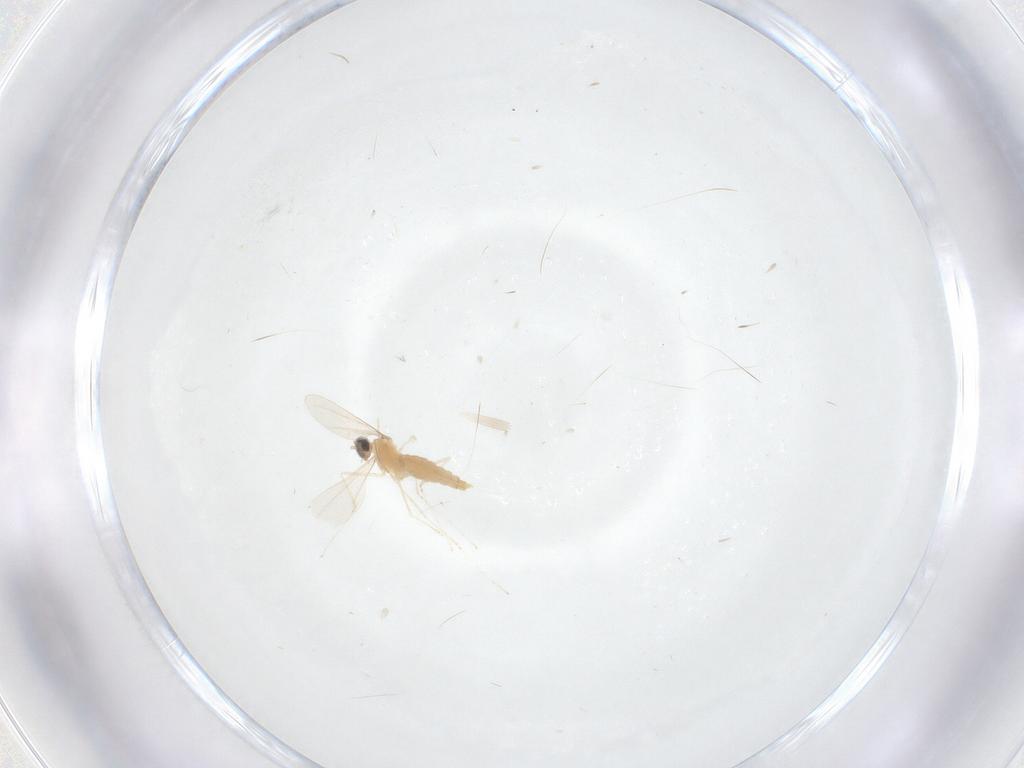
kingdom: Animalia
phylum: Arthropoda
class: Insecta
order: Diptera
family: Cecidomyiidae
